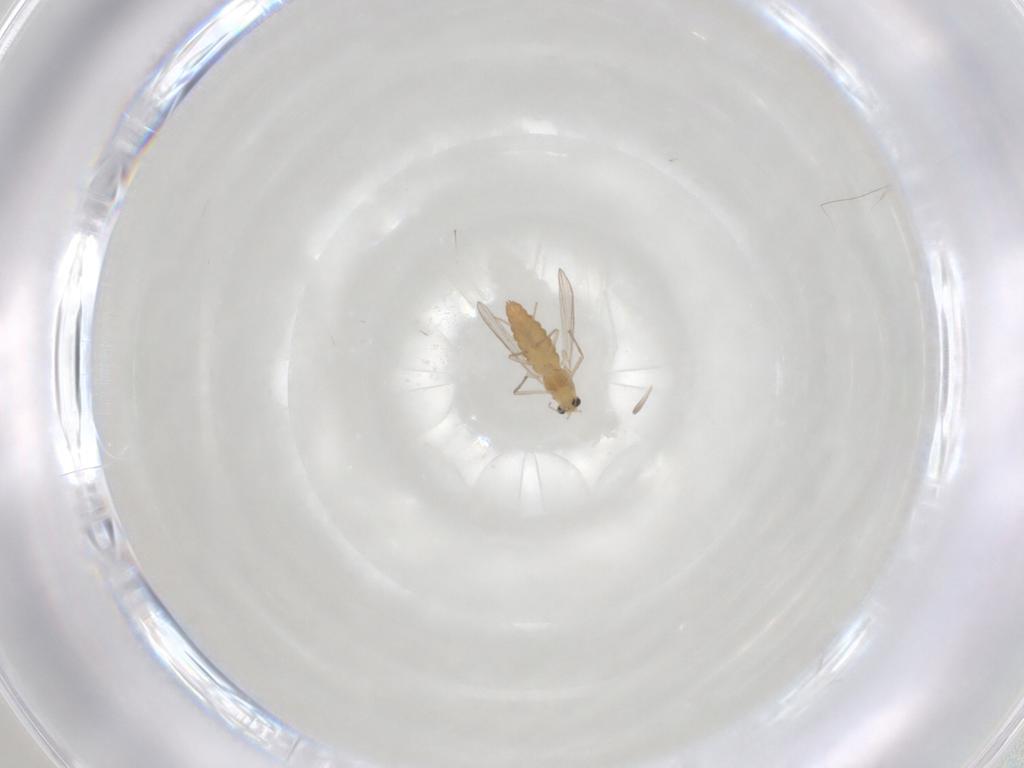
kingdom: Animalia
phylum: Arthropoda
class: Insecta
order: Diptera
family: Chironomidae
